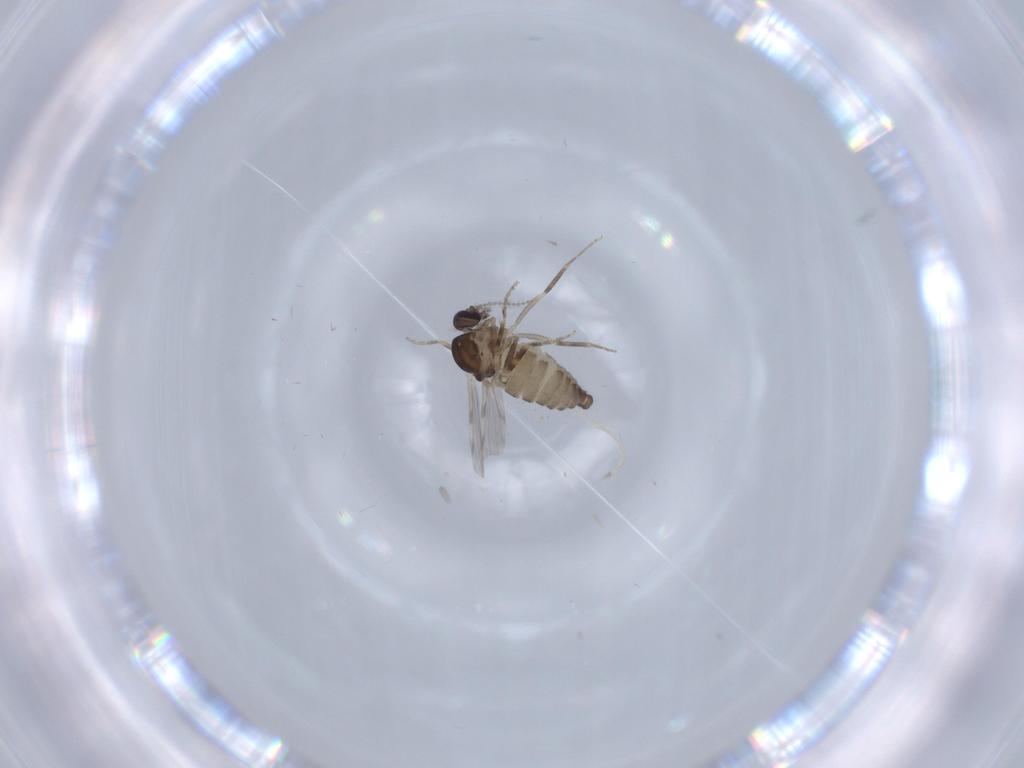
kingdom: Animalia
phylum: Arthropoda
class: Insecta
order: Diptera
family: Ceratopogonidae
